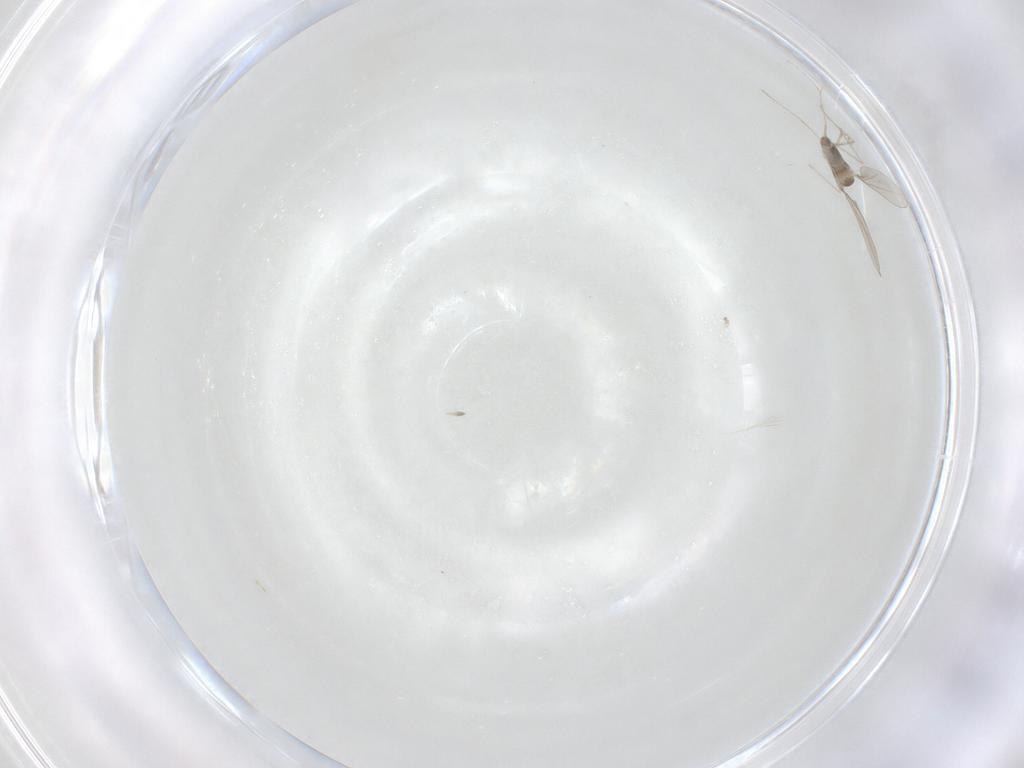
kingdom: Animalia
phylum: Arthropoda
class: Insecta
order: Diptera
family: Cecidomyiidae
